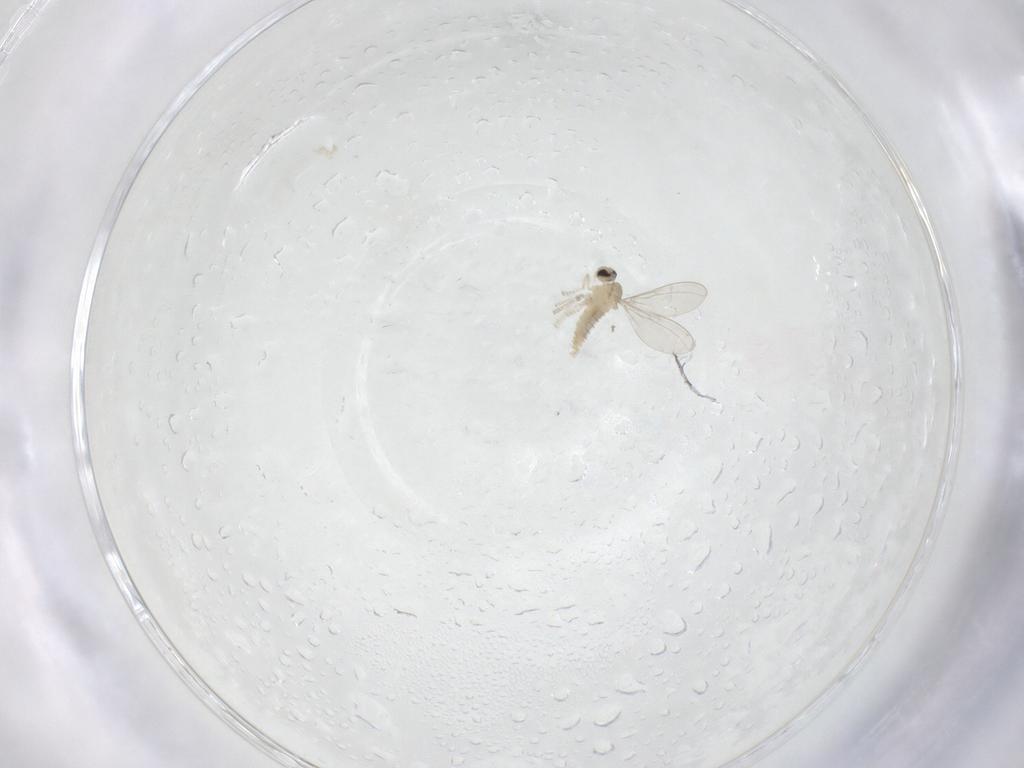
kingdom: Animalia
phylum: Arthropoda
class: Insecta
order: Diptera
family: Cecidomyiidae
